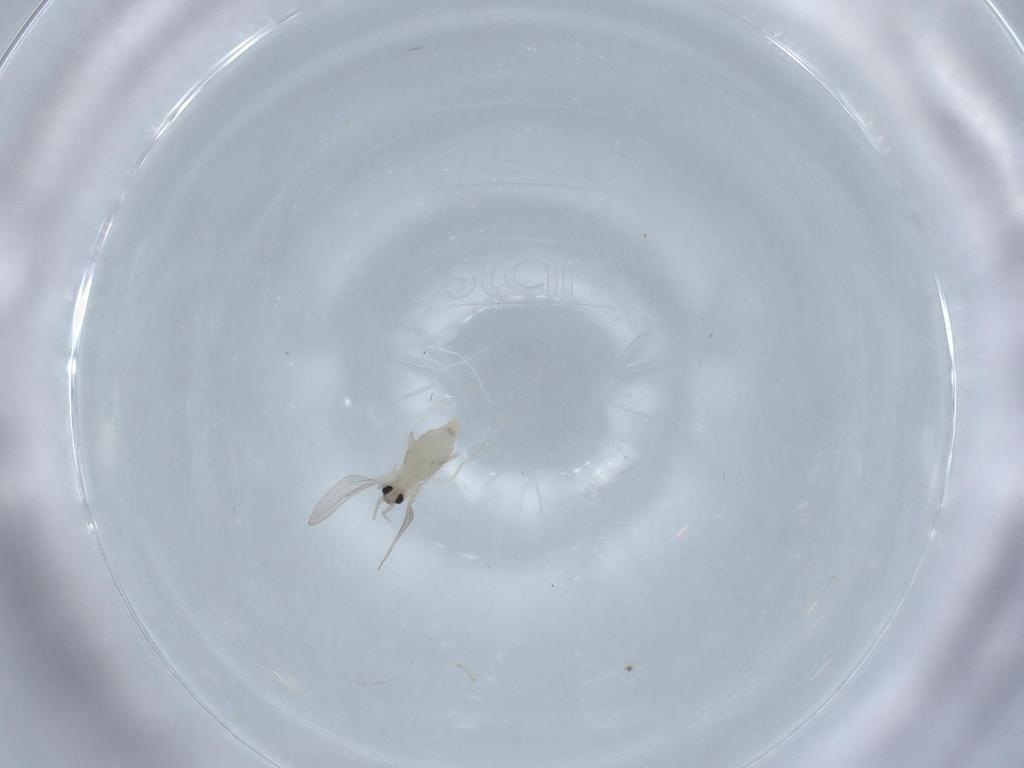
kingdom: Animalia
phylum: Arthropoda
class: Insecta
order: Diptera
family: Cecidomyiidae
